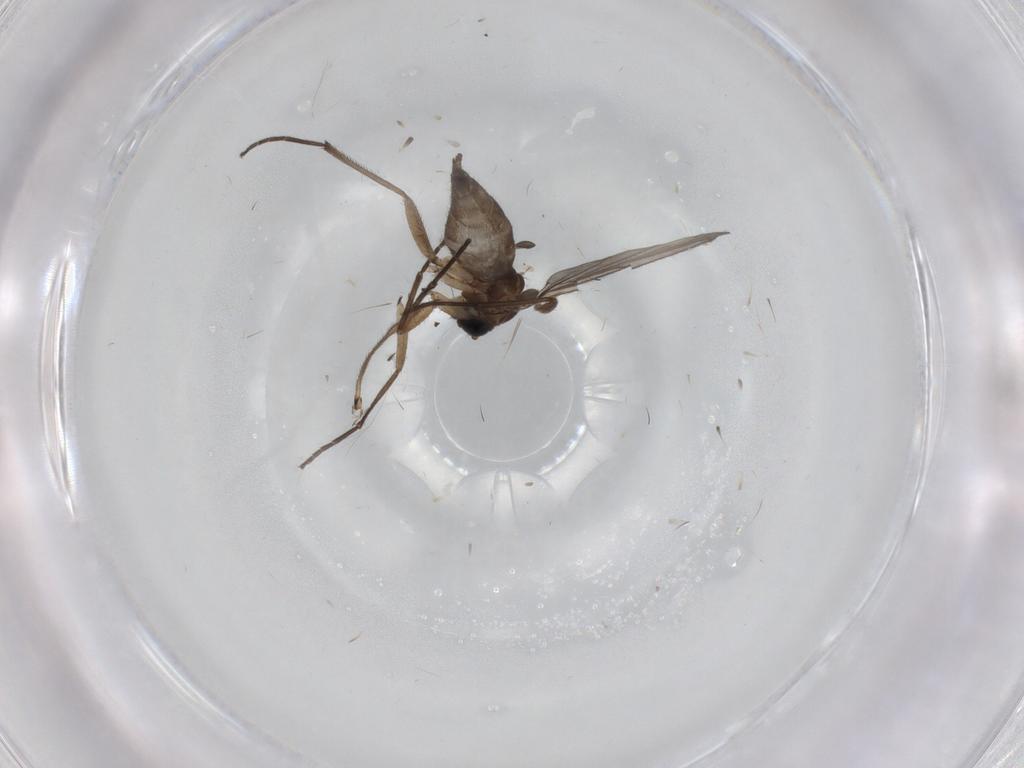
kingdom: Animalia
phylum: Arthropoda
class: Insecta
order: Diptera
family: Sciaridae
